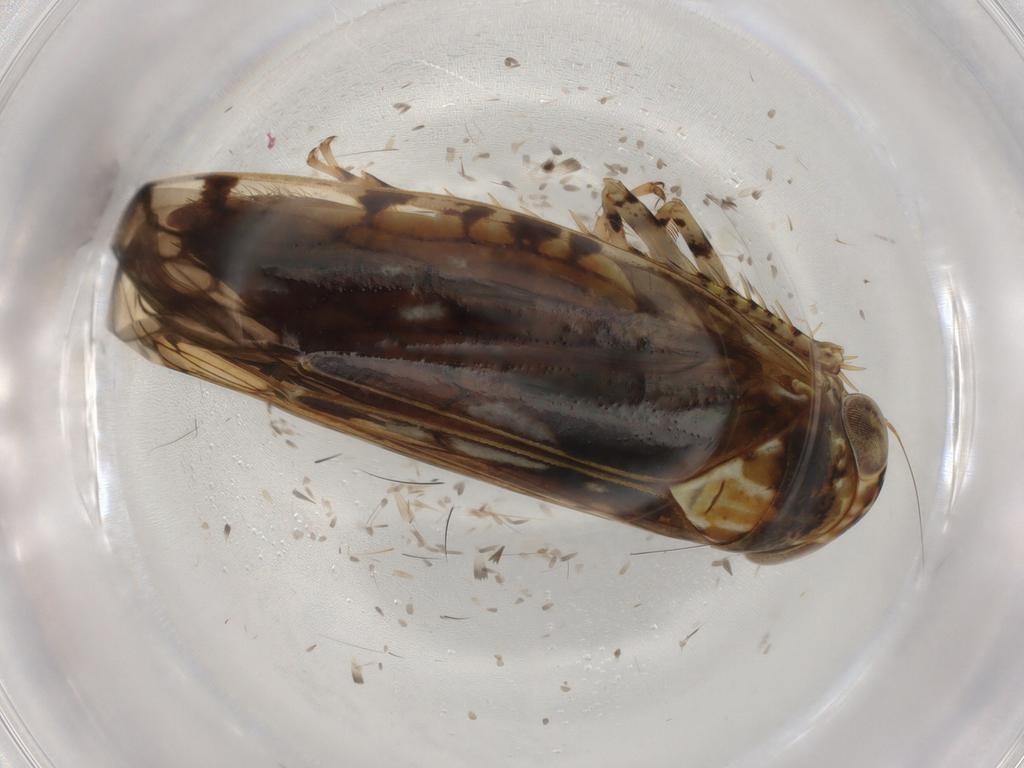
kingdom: Animalia
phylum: Arthropoda
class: Insecta
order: Hemiptera
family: Cicadellidae
